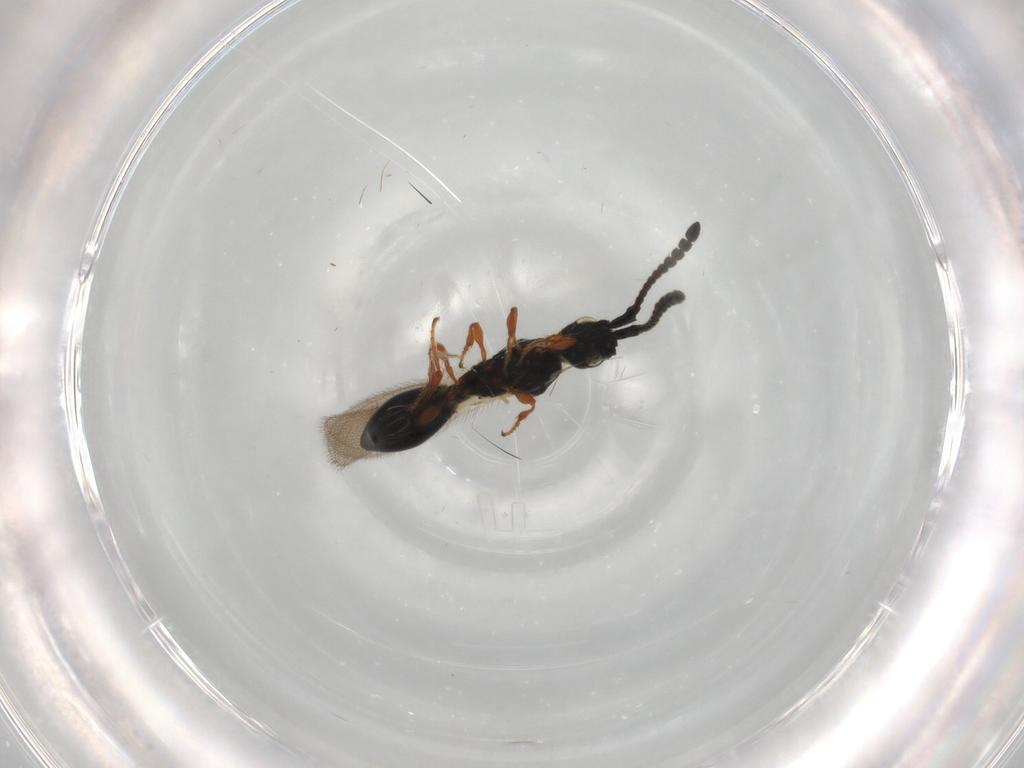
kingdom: Animalia
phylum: Arthropoda
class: Insecta
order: Hymenoptera
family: Diapriidae
